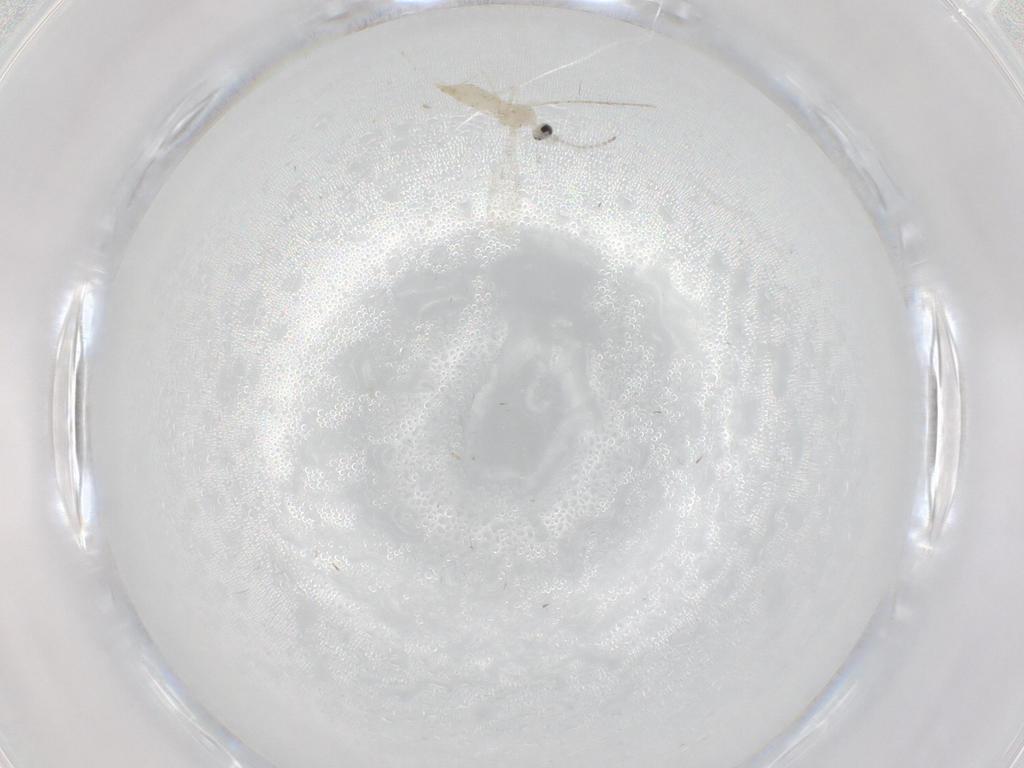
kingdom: Animalia
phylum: Arthropoda
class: Insecta
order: Diptera
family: Cecidomyiidae
